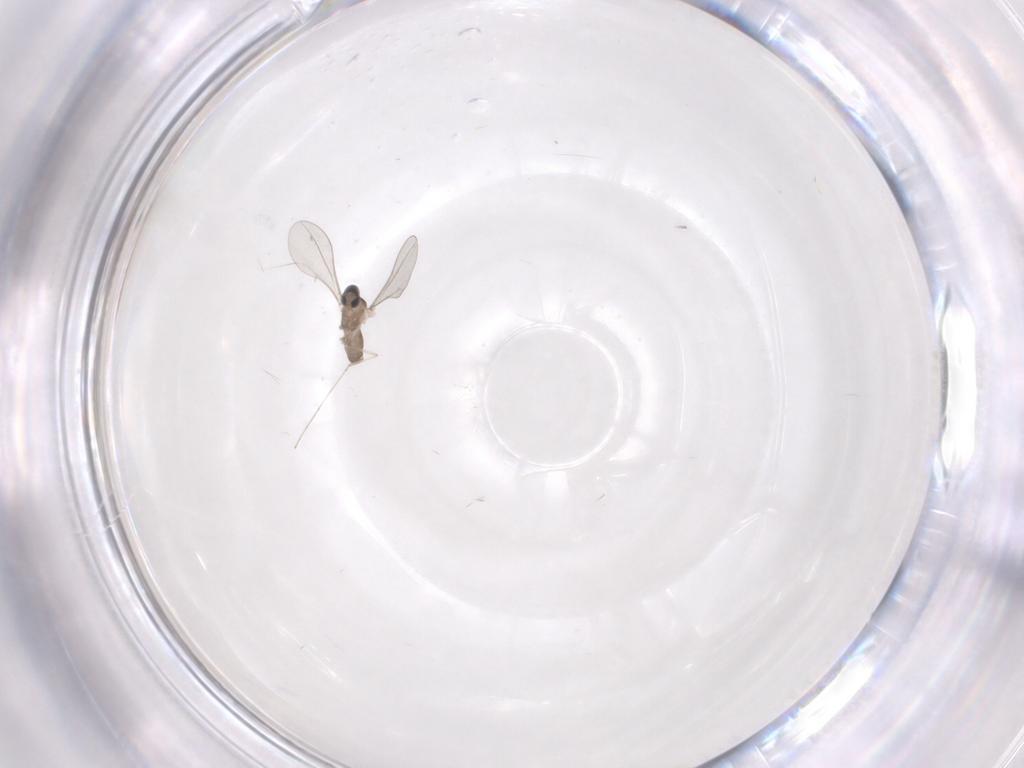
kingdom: Animalia
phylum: Arthropoda
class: Insecta
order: Diptera
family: Cecidomyiidae
